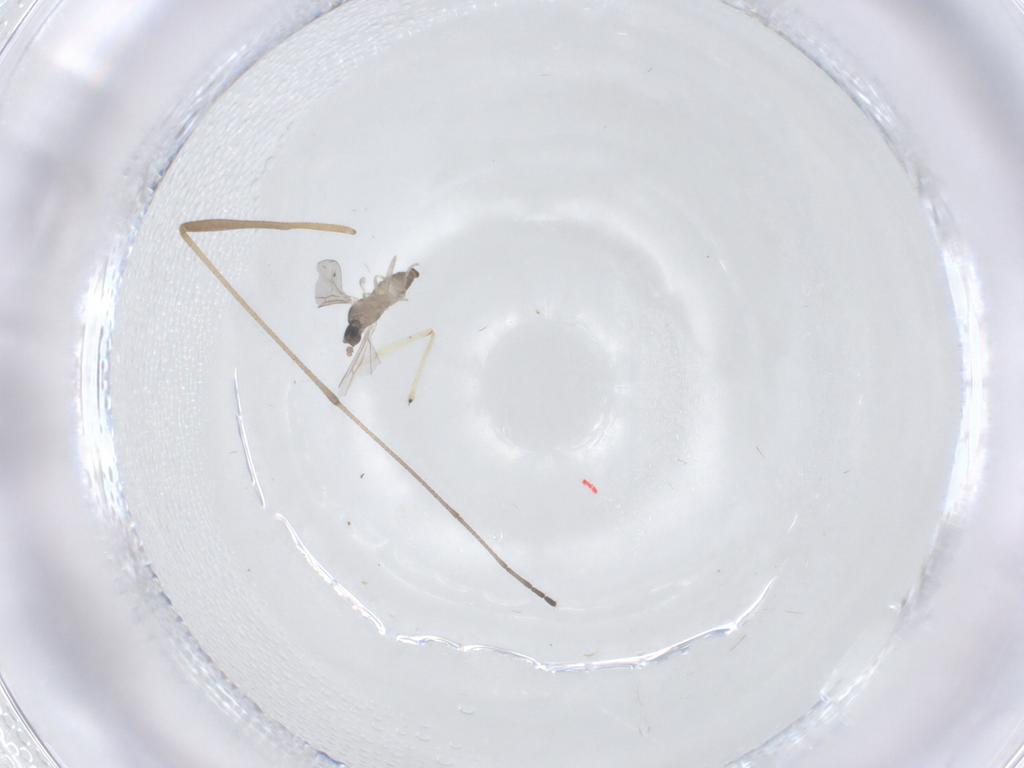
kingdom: Animalia
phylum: Arthropoda
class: Insecta
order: Diptera
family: Chironomidae
